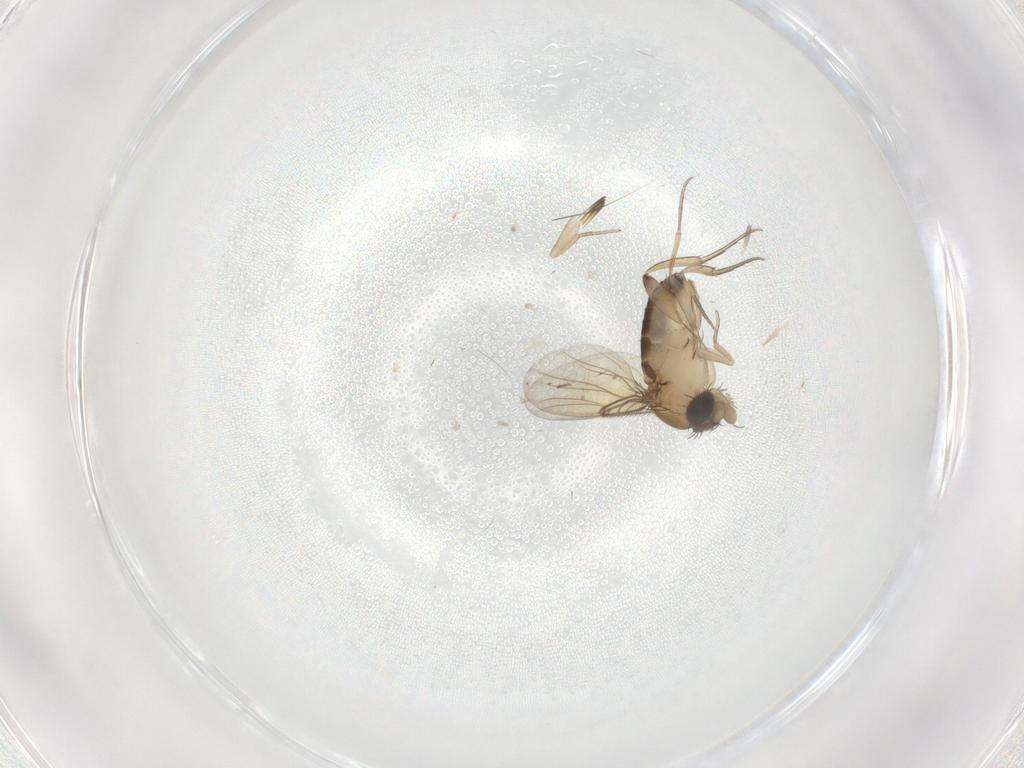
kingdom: Animalia
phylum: Arthropoda
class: Insecta
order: Diptera
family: Phoridae
